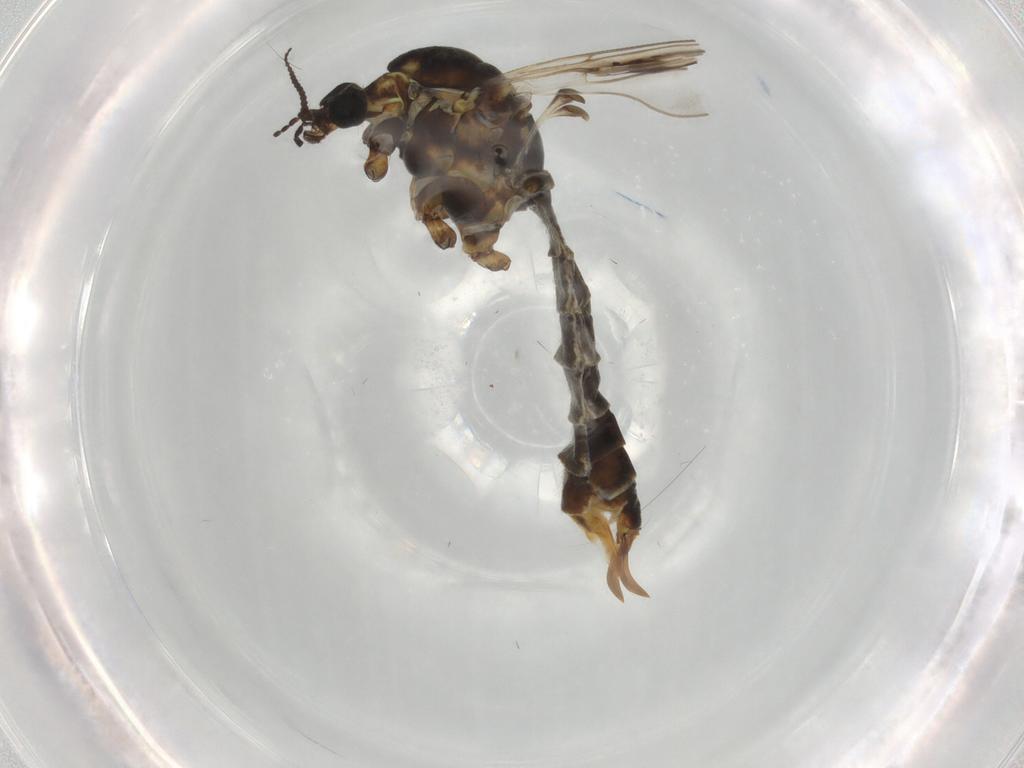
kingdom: Animalia
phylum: Arthropoda
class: Insecta
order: Diptera
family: Limoniidae
